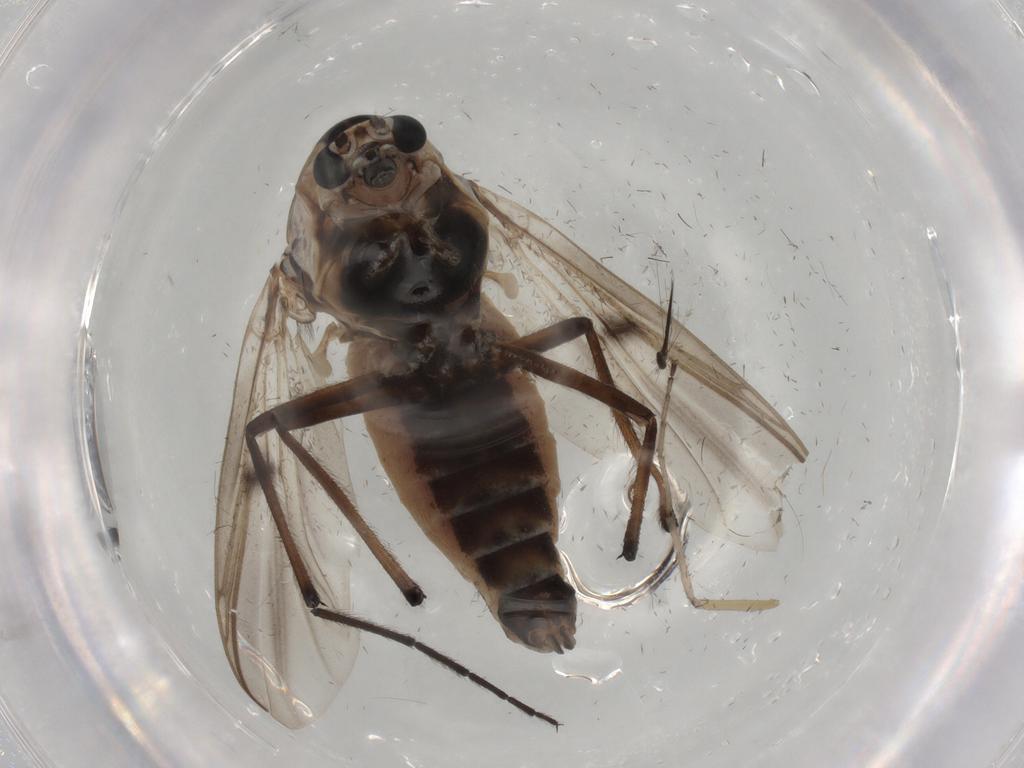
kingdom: Animalia
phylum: Arthropoda
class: Insecta
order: Diptera
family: Chironomidae
